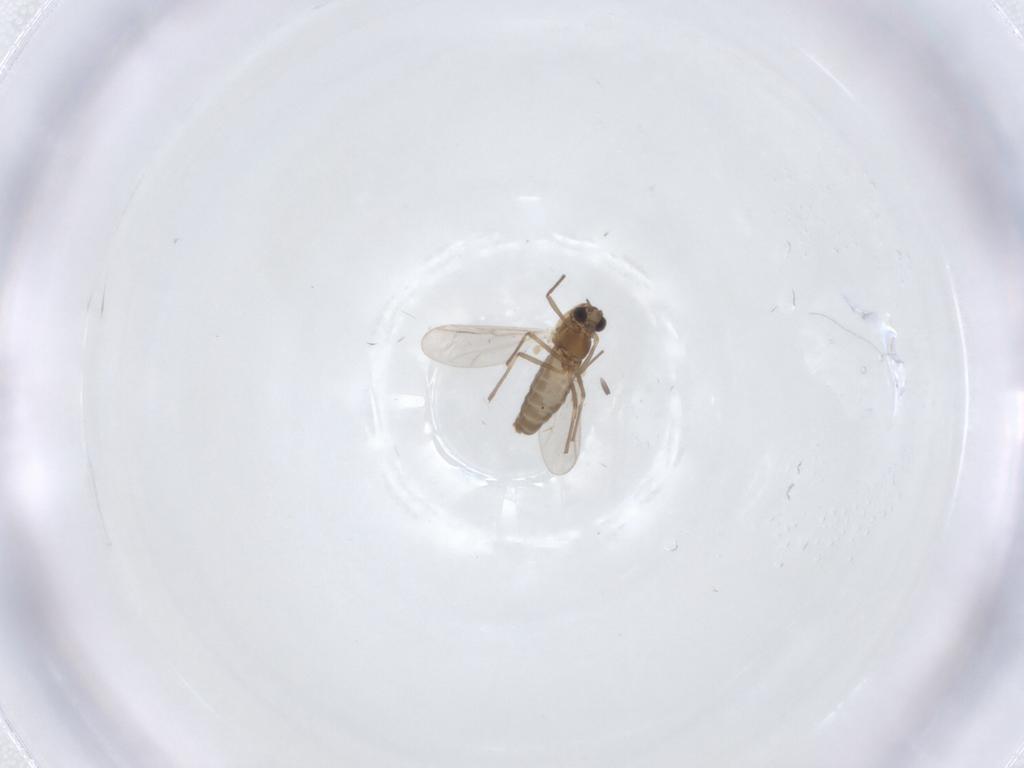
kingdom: Animalia
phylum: Arthropoda
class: Insecta
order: Diptera
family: Chironomidae
